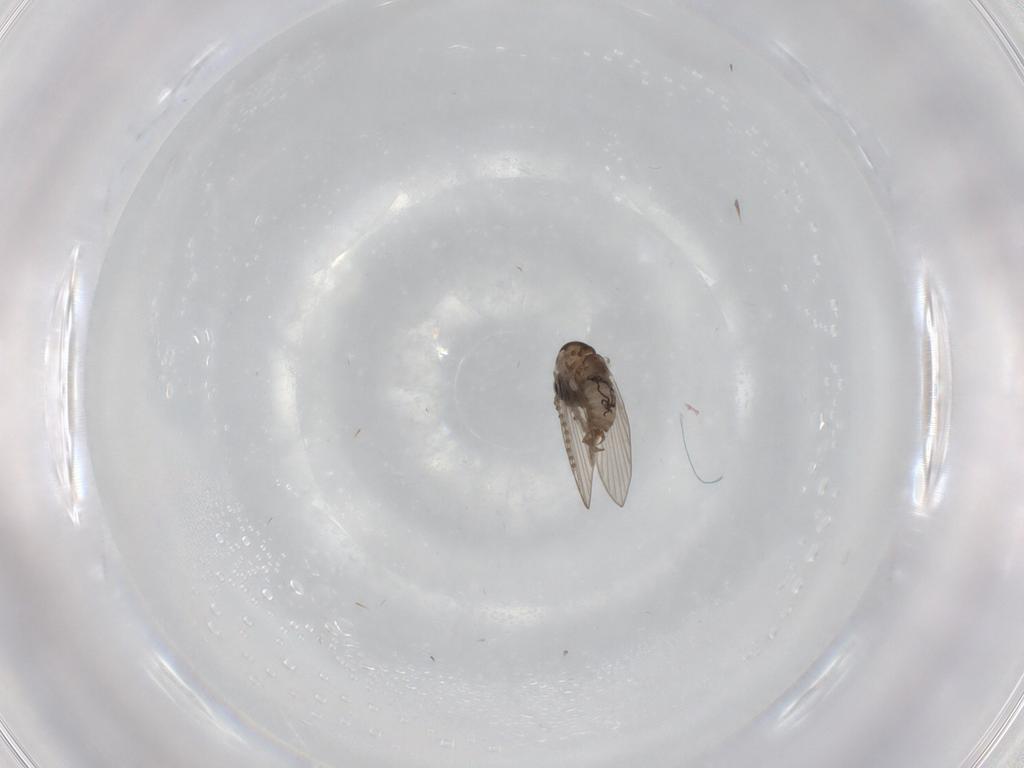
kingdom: Animalia
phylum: Arthropoda
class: Insecta
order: Diptera
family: Psychodidae
